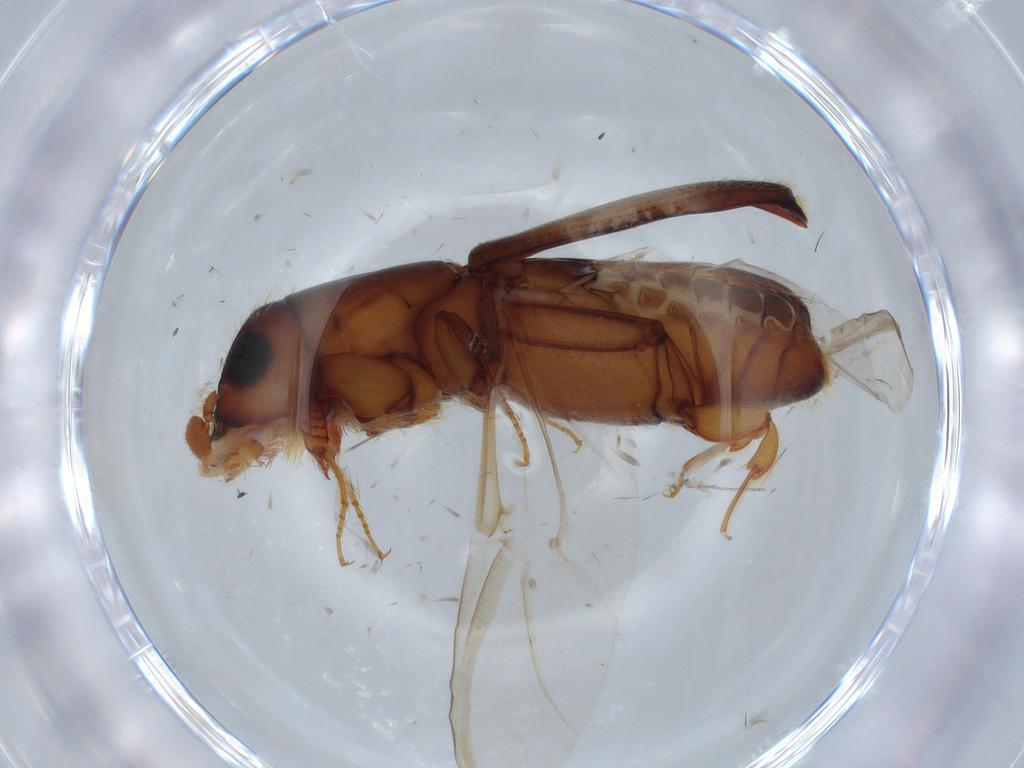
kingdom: Animalia
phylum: Arthropoda
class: Insecta
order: Coleoptera
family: Curculionidae
